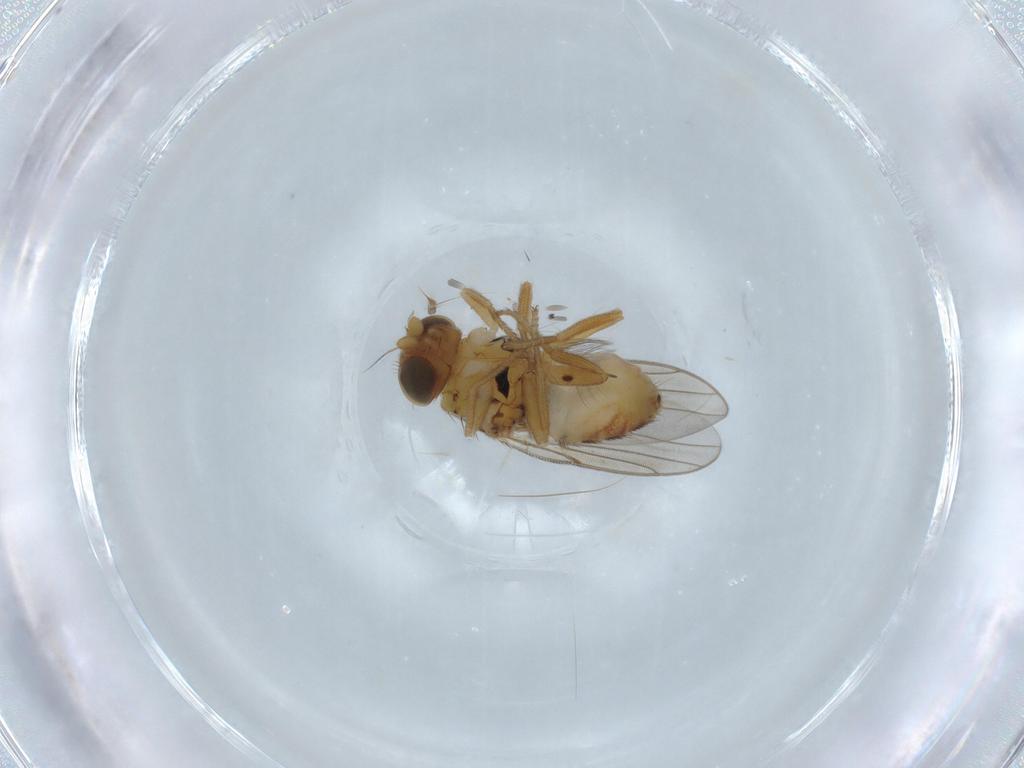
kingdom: Animalia
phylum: Arthropoda
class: Insecta
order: Diptera
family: Chloropidae
